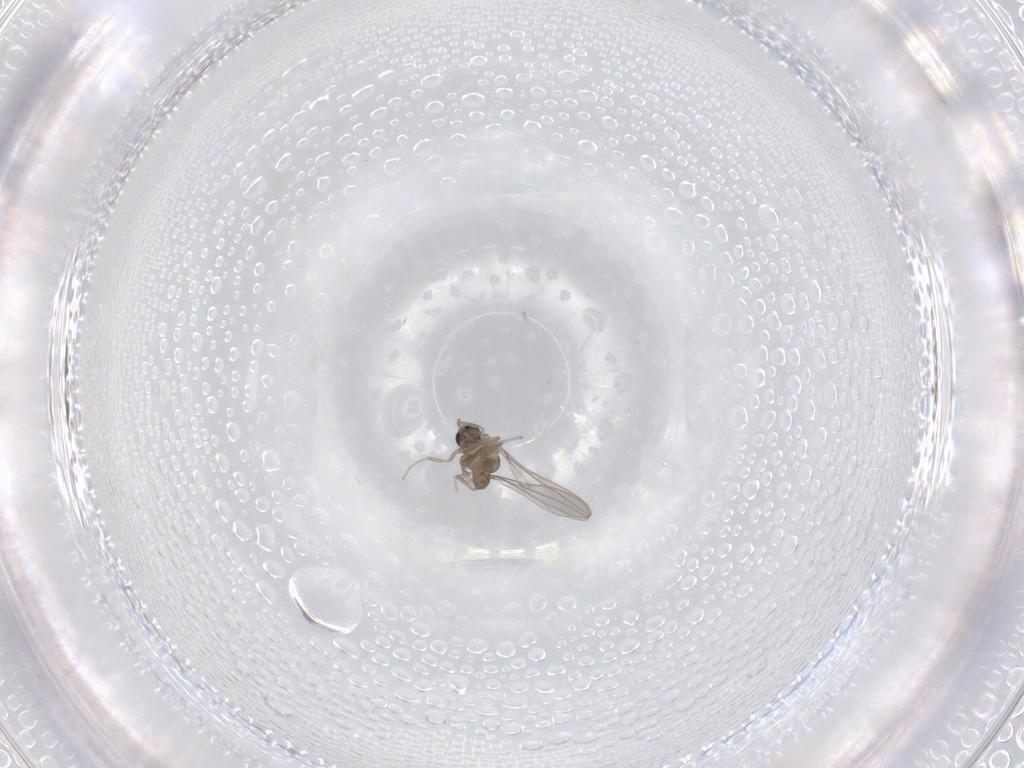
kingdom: Animalia
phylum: Arthropoda
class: Insecta
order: Diptera
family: Cecidomyiidae
